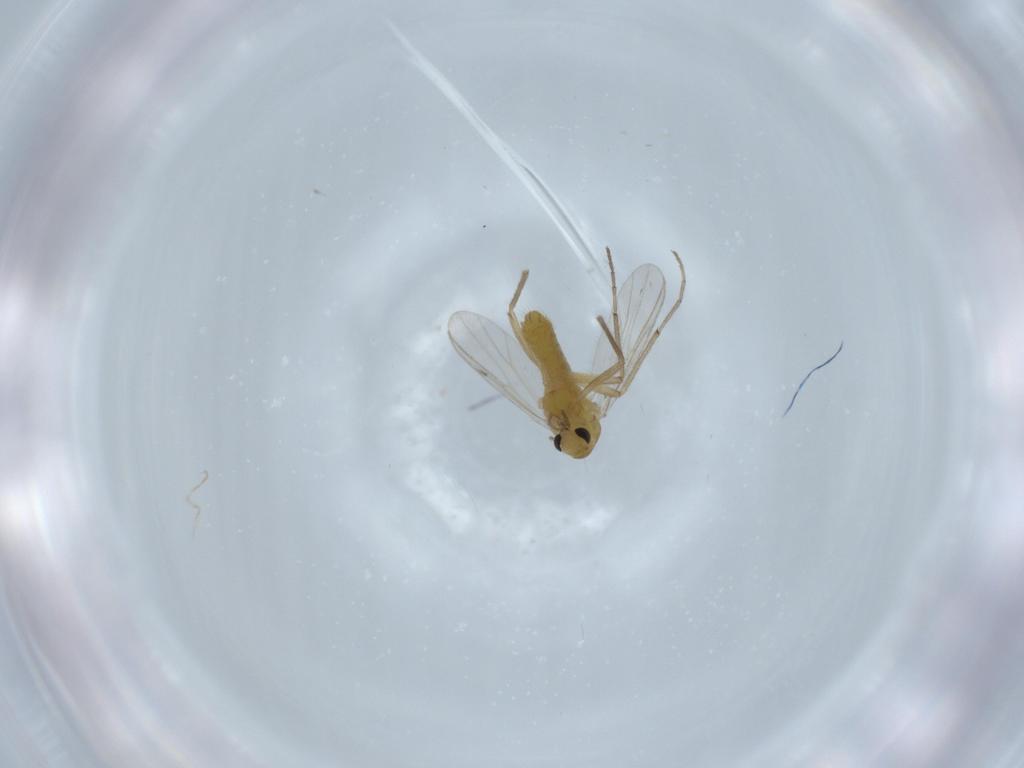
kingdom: Animalia
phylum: Arthropoda
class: Insecta
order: Diptera
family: Chironomidae
